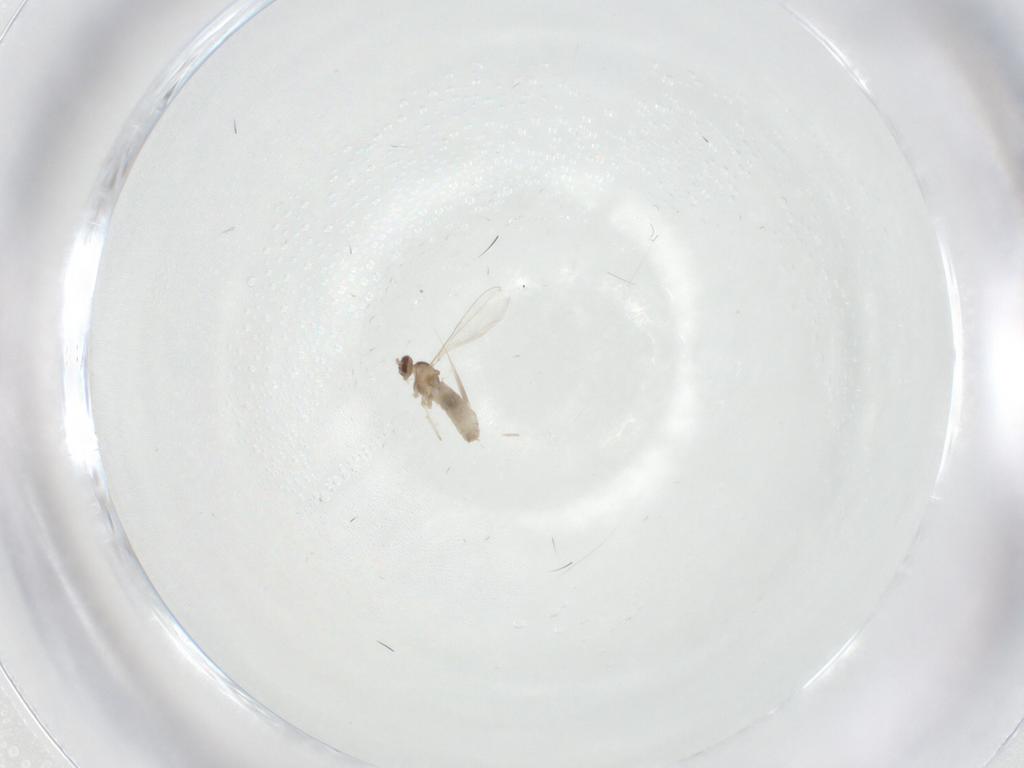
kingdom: Animalia
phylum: Arthropoda
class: Insecta
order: Diptera
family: Cecidomyiidae
